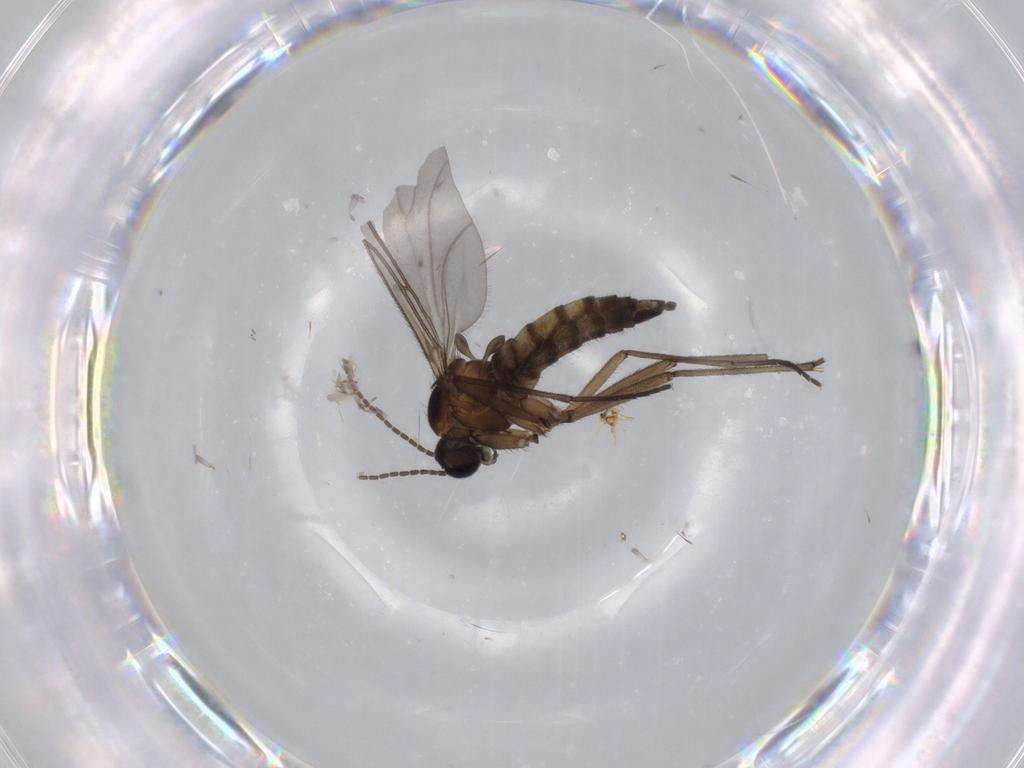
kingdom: Animalia
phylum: Arthropoda
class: Insecta
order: Diptera
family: Sciaridae
